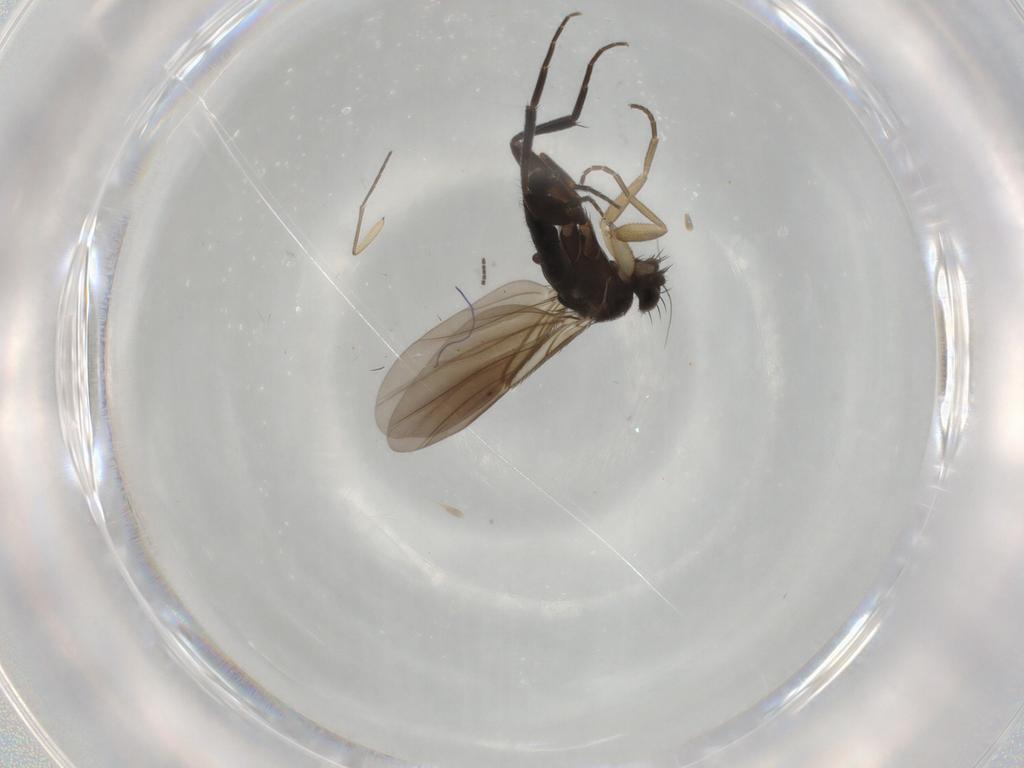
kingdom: Animalia
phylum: Arthropoda
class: Insecta
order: Diptera
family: Phoridae
